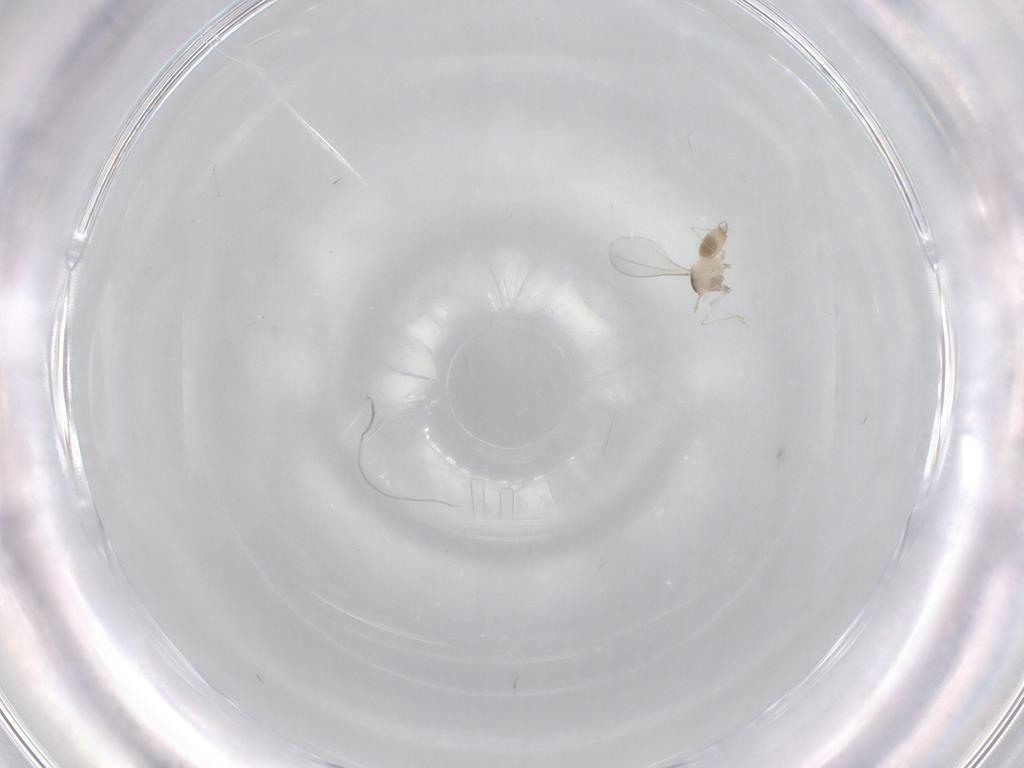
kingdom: Animalia
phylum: Arthropoda
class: Insecta
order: Diptera
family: Cecidomyiidae
